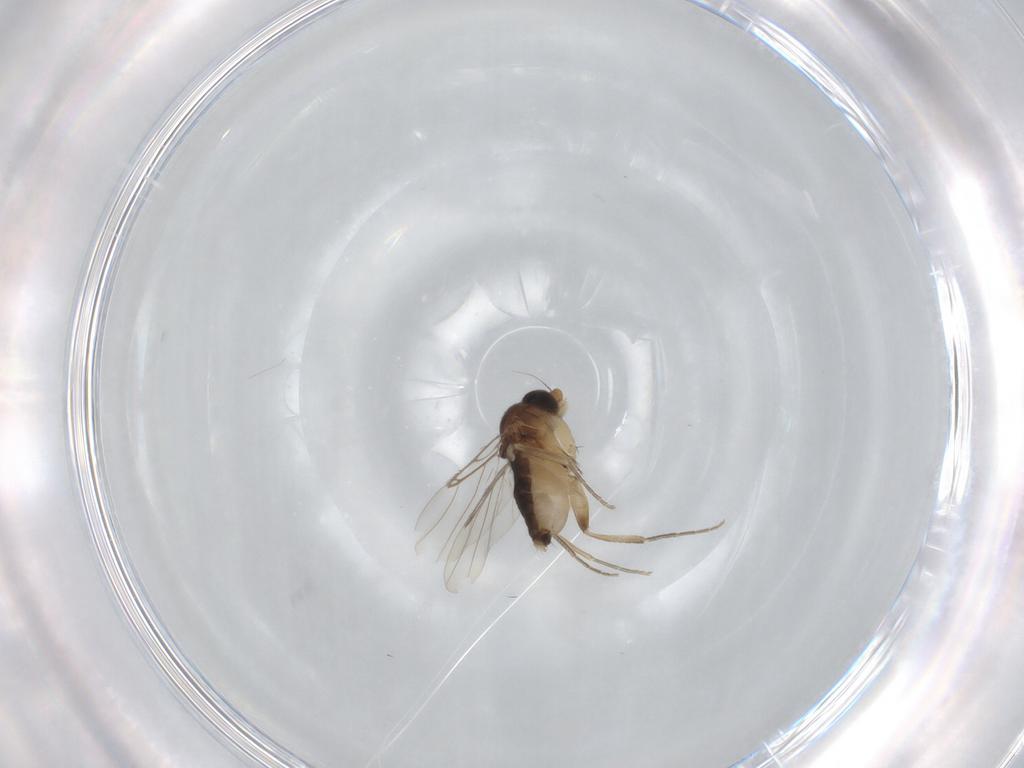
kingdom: Animalia
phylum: Arthropoda
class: Insecta
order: Diptera
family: Phoridae
